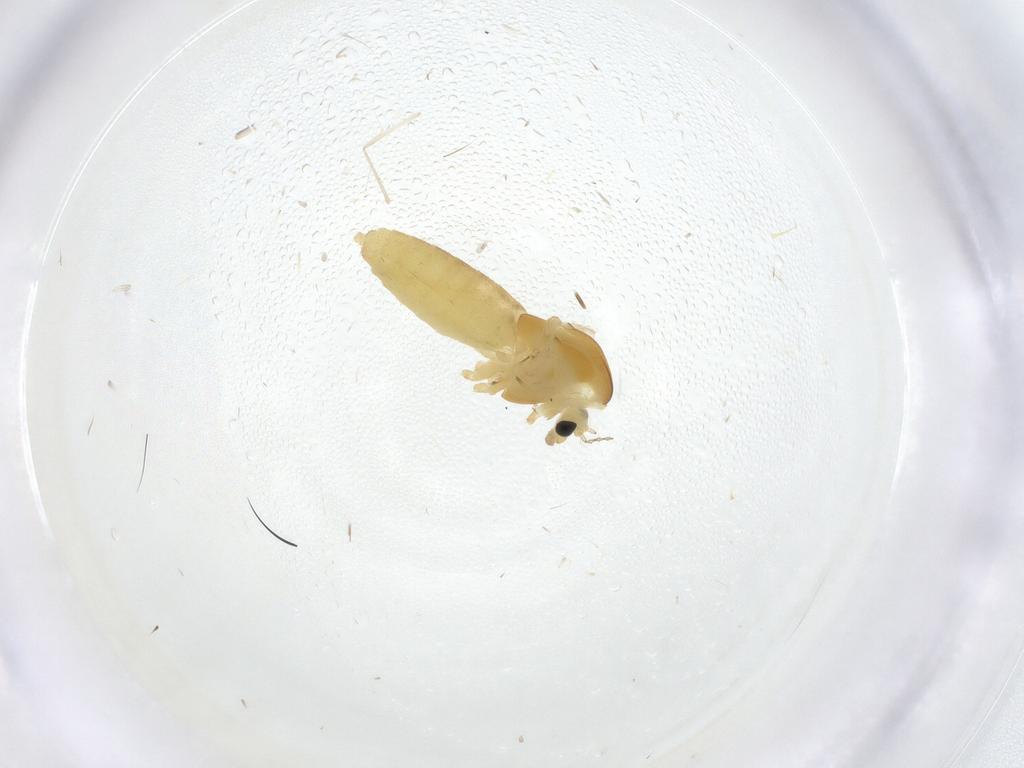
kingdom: Animalia
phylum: Arthropoda
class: Insecta
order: Diptera
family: Chironomidae
